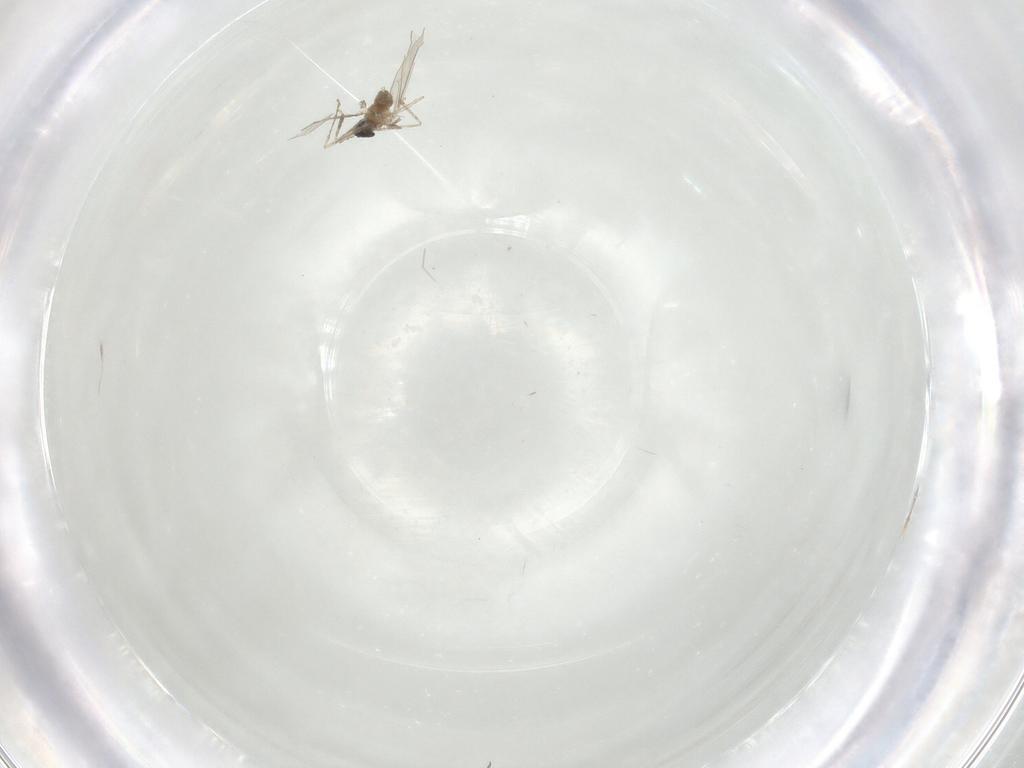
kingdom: Animalia
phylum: Arthropoda
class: Insecta
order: Diptera
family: Cecidomyiidae
